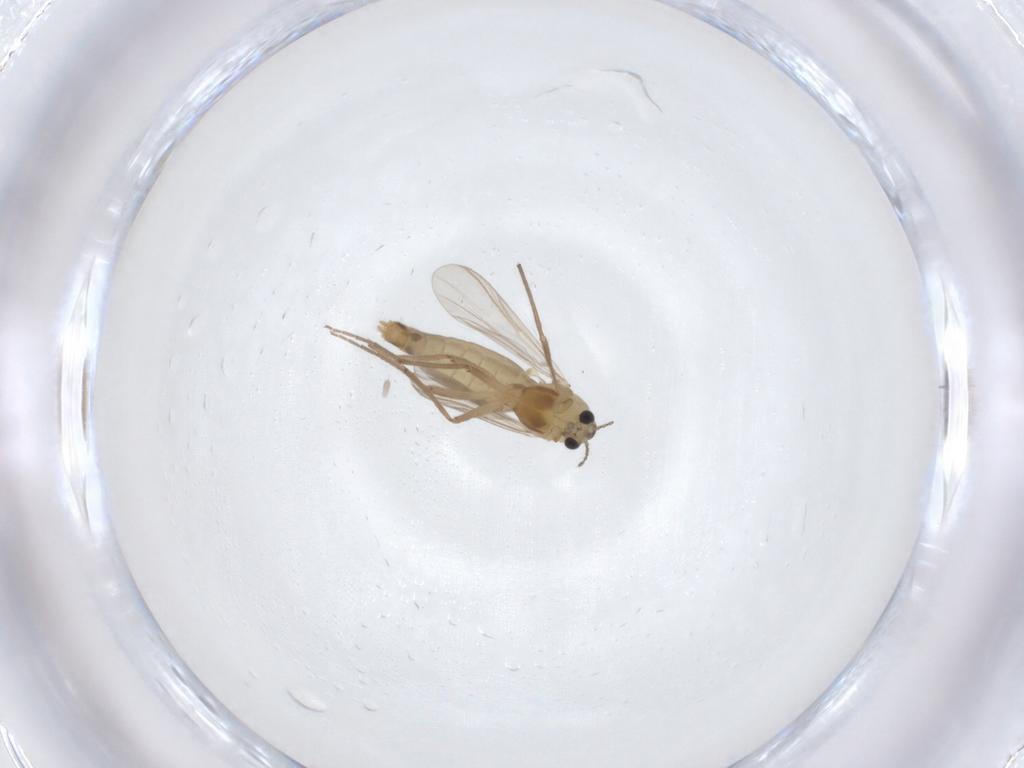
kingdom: Animalia
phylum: Arthropoda
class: Insecta
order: Diptera
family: Chironomidae
